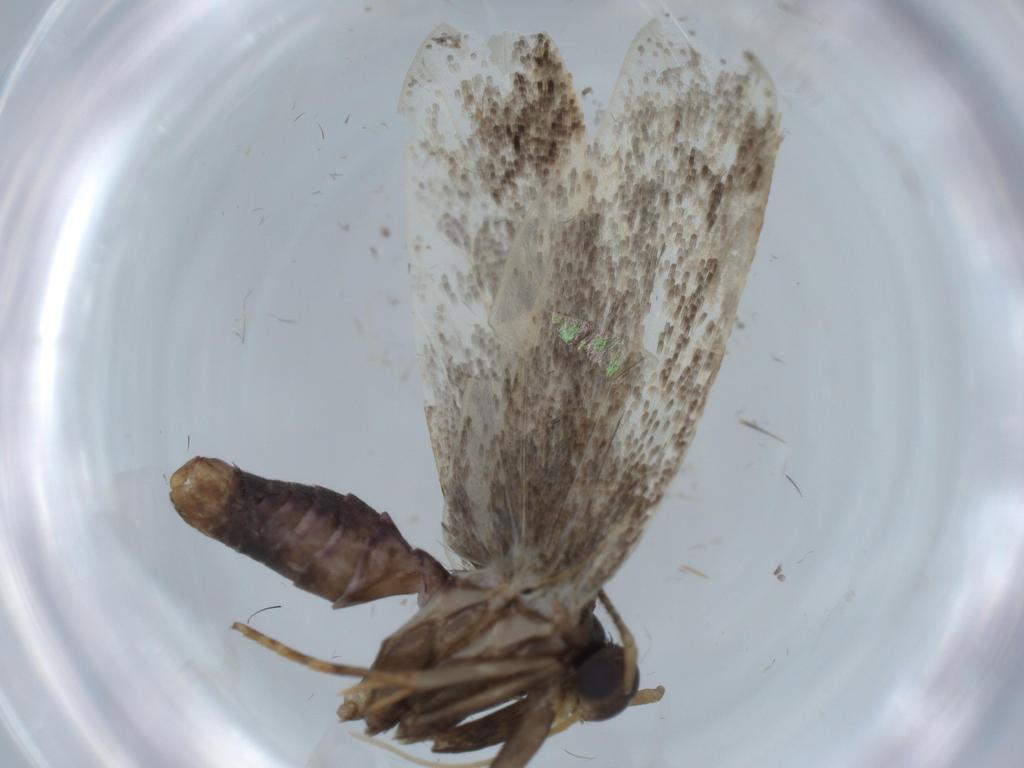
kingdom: Animalia
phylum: Arthropoda
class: Insecta
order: Lepidoptera
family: Oecophoridae
